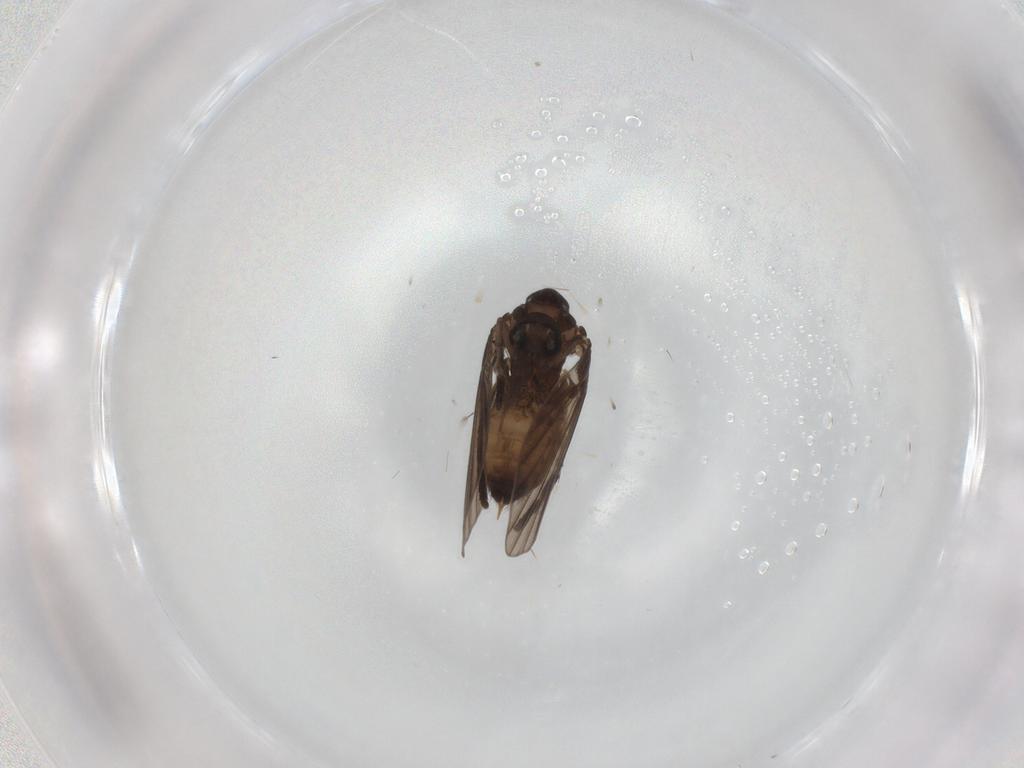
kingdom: Animalia
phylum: Arthropoda
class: Insecta
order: Diptera
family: Psychodidae
